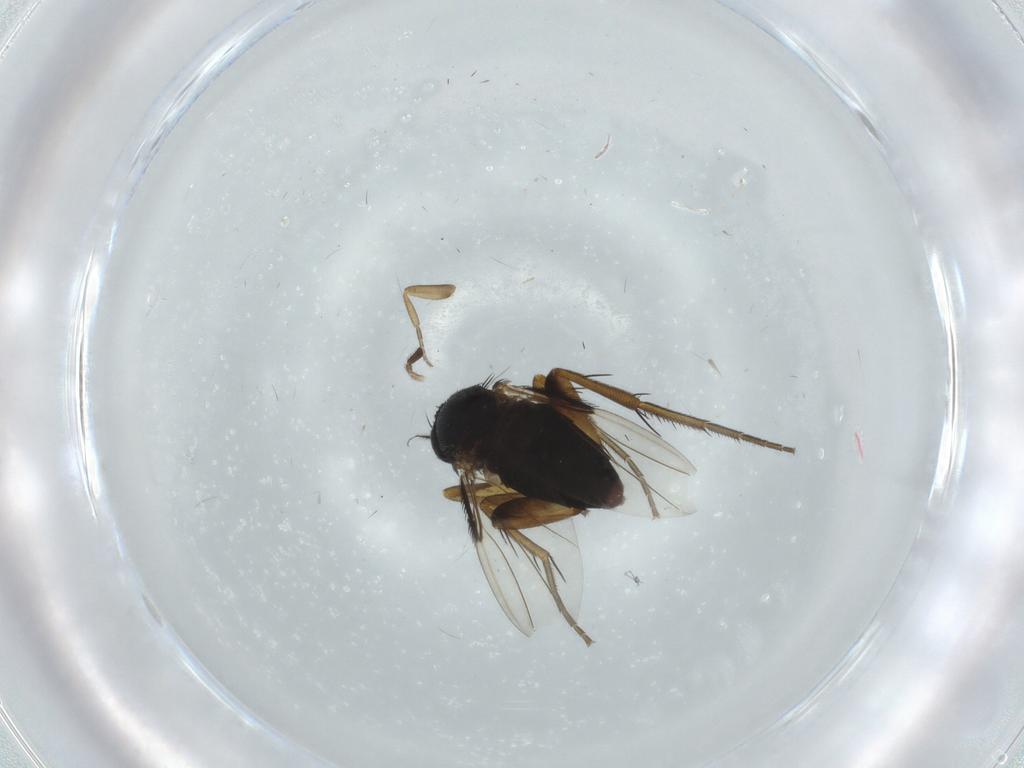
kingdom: Animalia
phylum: Arthropoda
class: Insecta
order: Diptera
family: Phoridae
